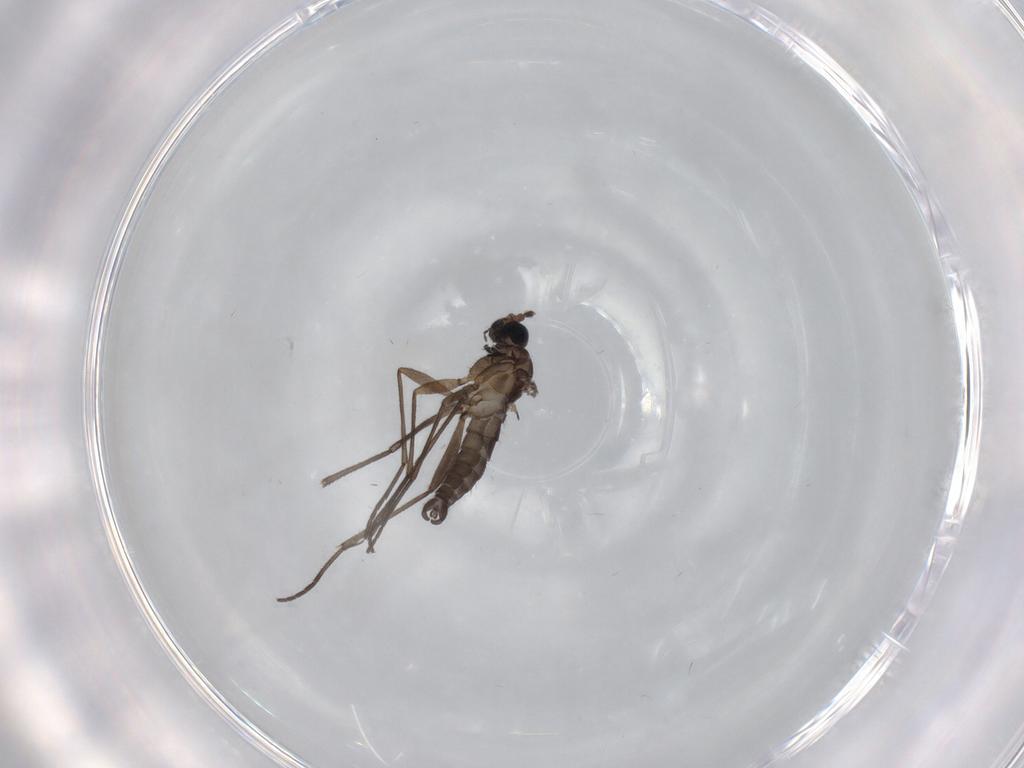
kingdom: Animalia
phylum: Arthropoda
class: Insecta
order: Diptera
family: Sciaridae
